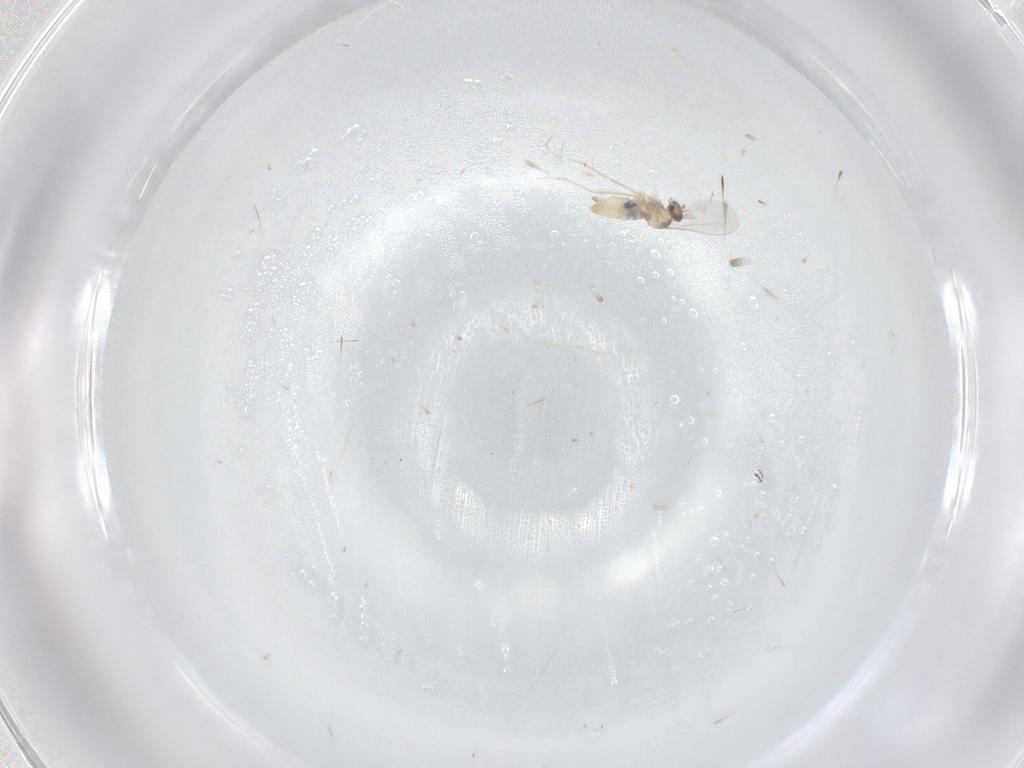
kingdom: Animalia
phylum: Arthropoda
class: Insecta
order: Diptera
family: Cecidomyiidae
